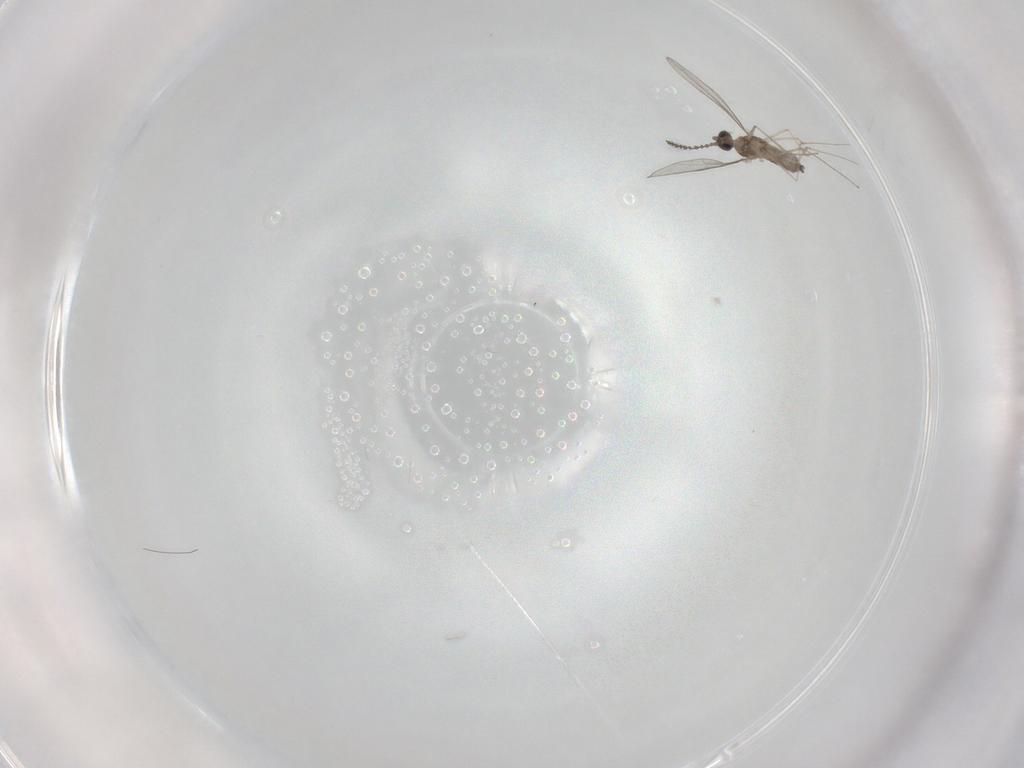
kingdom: Animalia
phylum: Arthropoda
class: Insecta
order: Diptera
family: Cecidomyiidae
